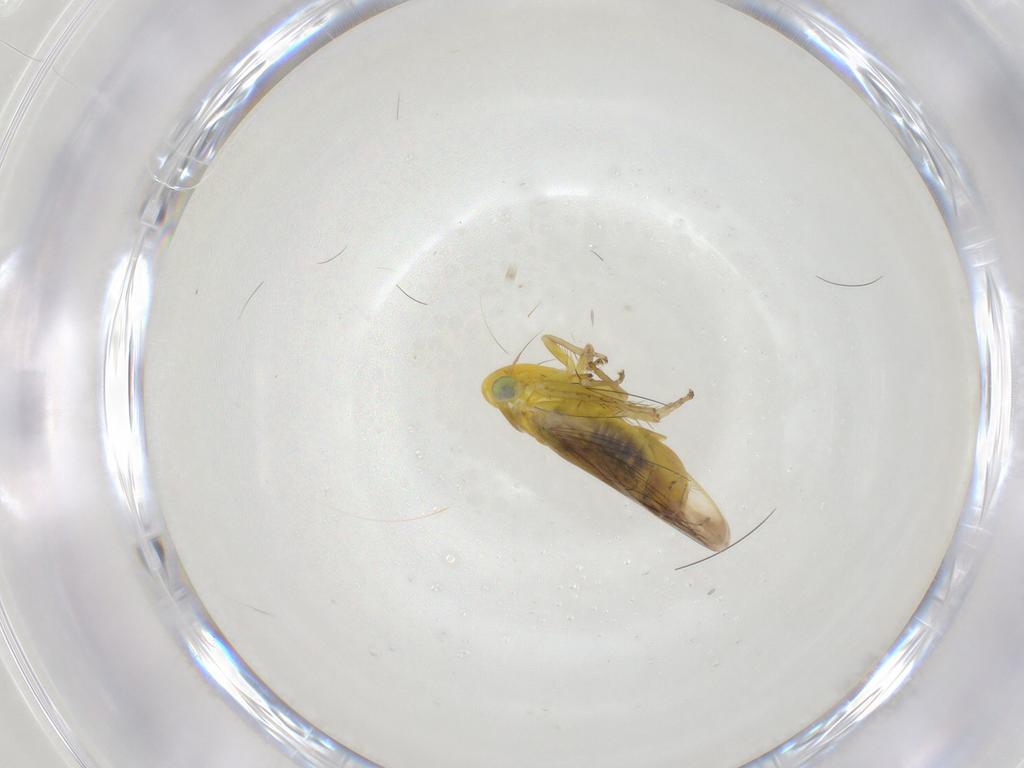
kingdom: Animalia
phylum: Arthropoda
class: Insecta
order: Hemiptera
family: Cicadellidae
